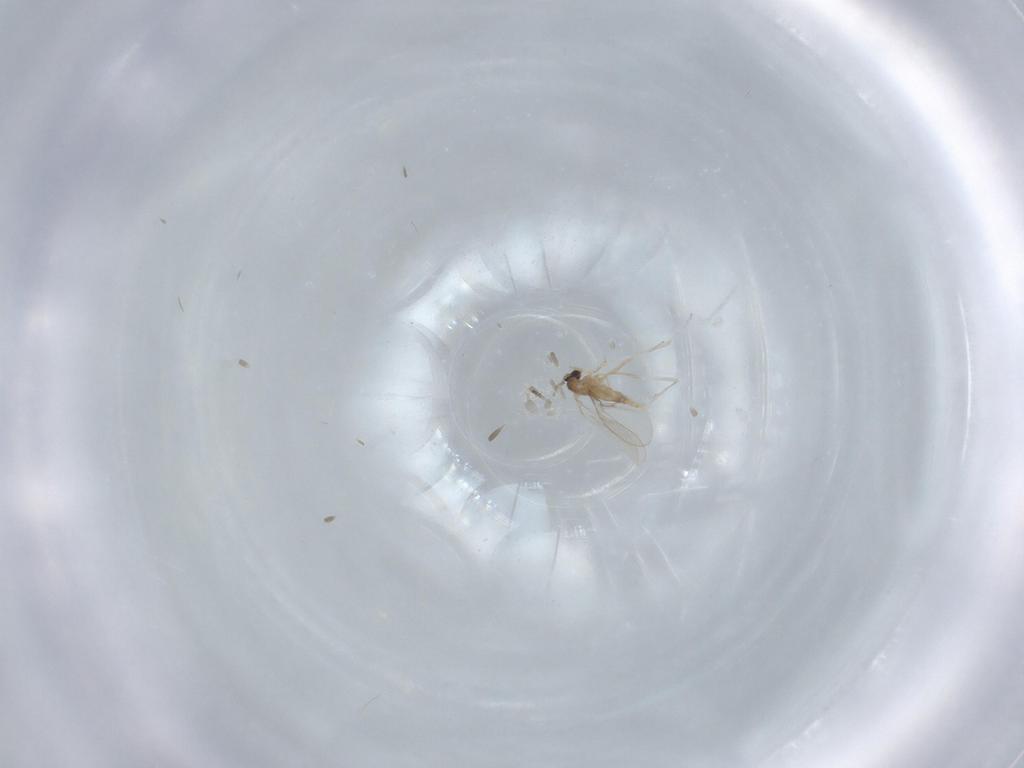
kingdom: Animalia
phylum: Arthropoda
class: Insecta
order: Diptera
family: Cecidomyiidae
